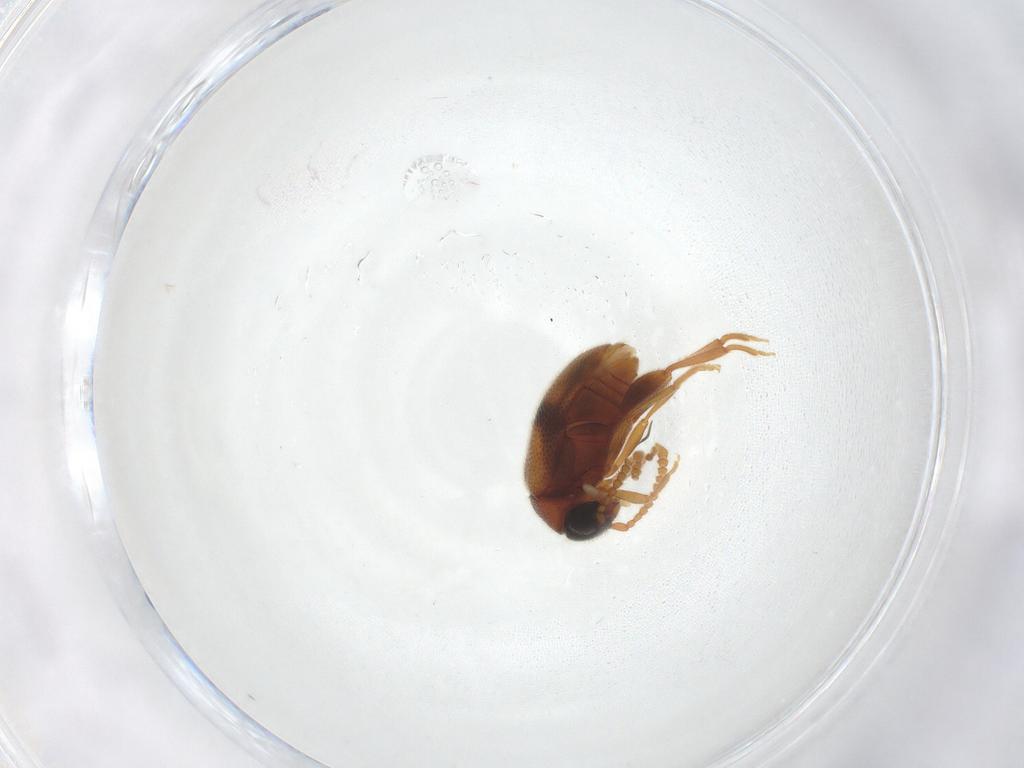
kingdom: Animalia
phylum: Arthropoda
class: Insecta
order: Coleoptera
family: Aderidae
